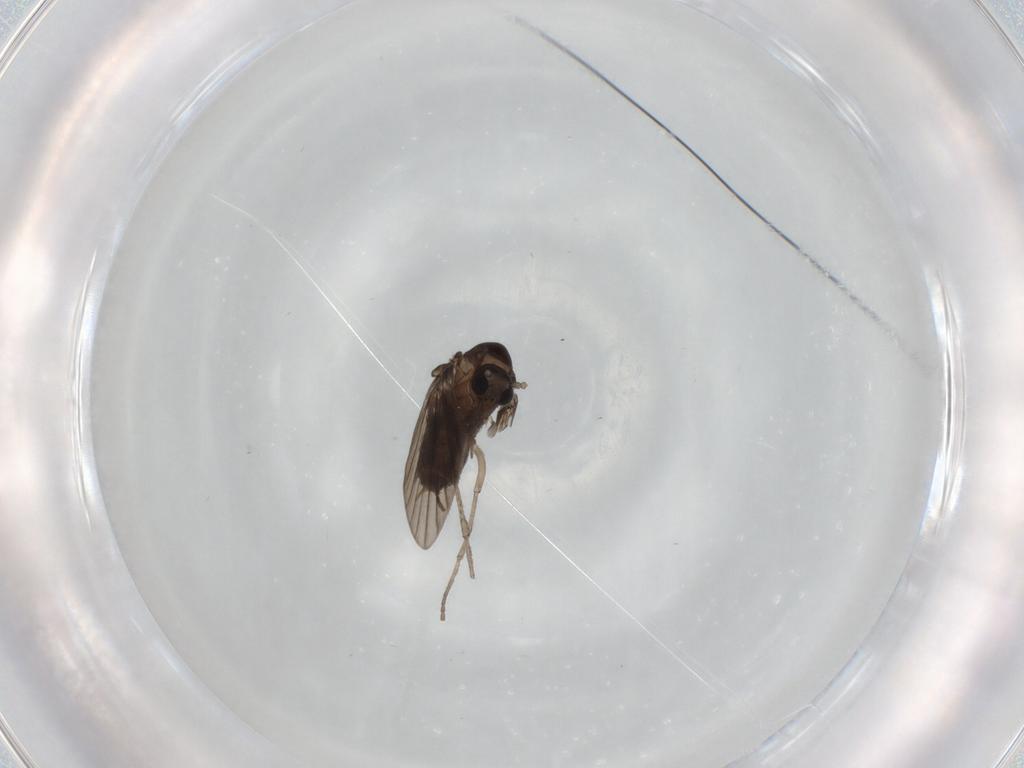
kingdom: Animalia
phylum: Arthropoda
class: Insecta
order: Diptera
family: Psychodidae
